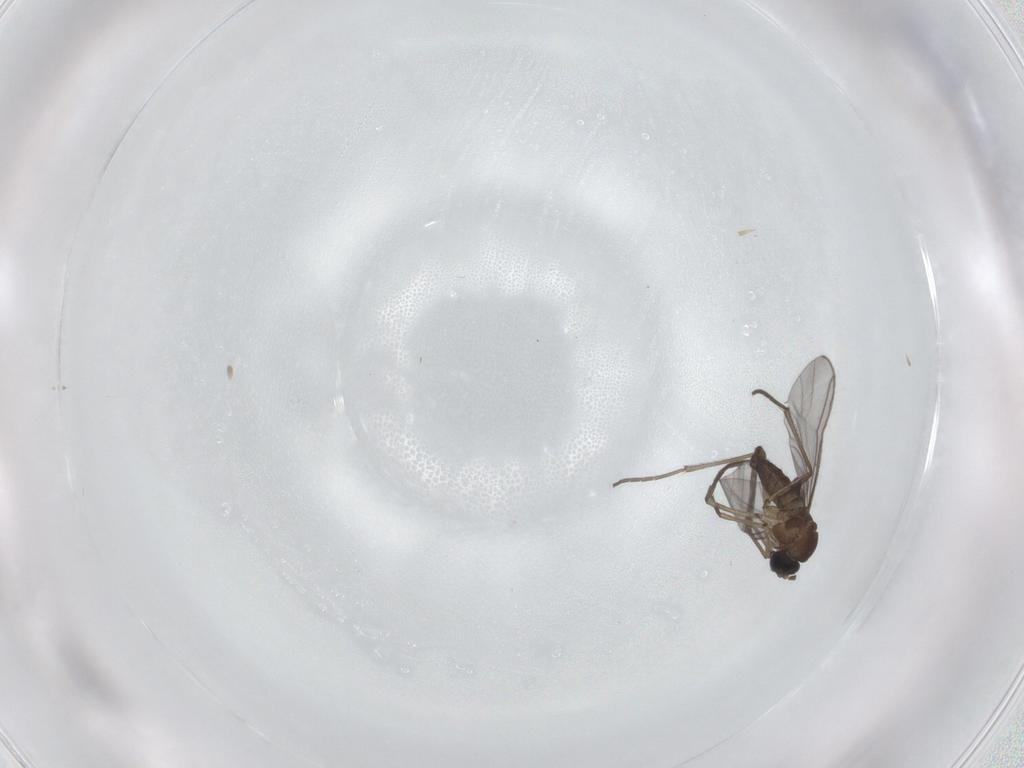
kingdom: Animalia
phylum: Arthropoda
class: Insecta
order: Diptera
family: Sciaridae
